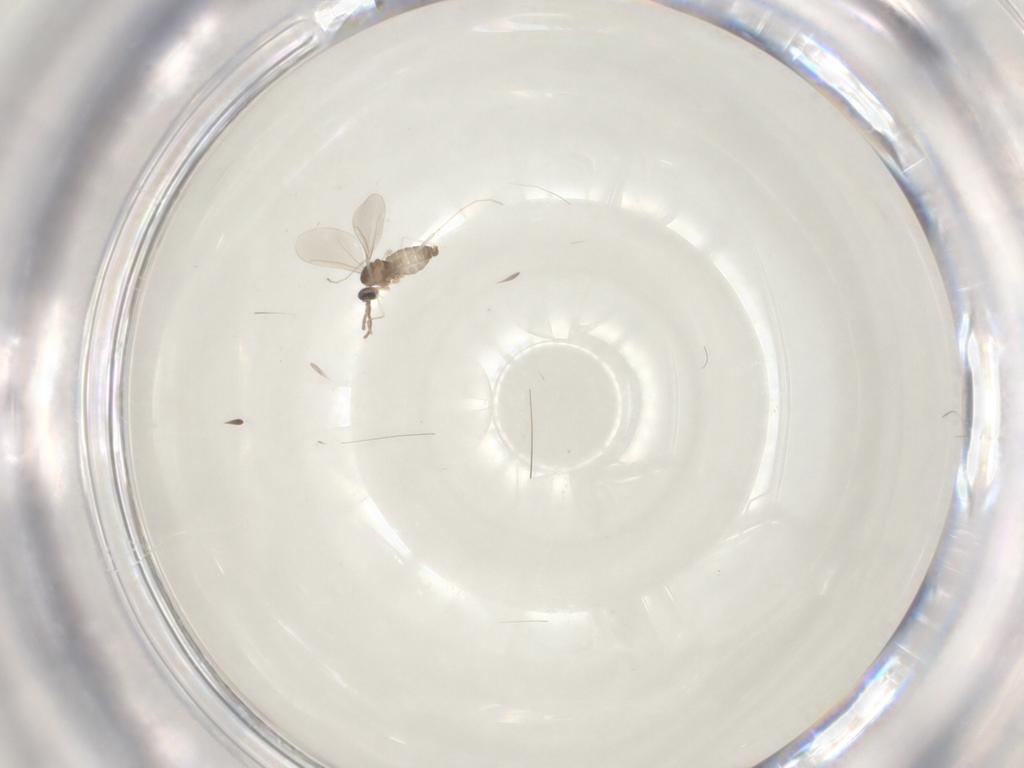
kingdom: Animalia
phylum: Arthropoda
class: Insecta
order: Diptera
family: Cecidomyiidae
